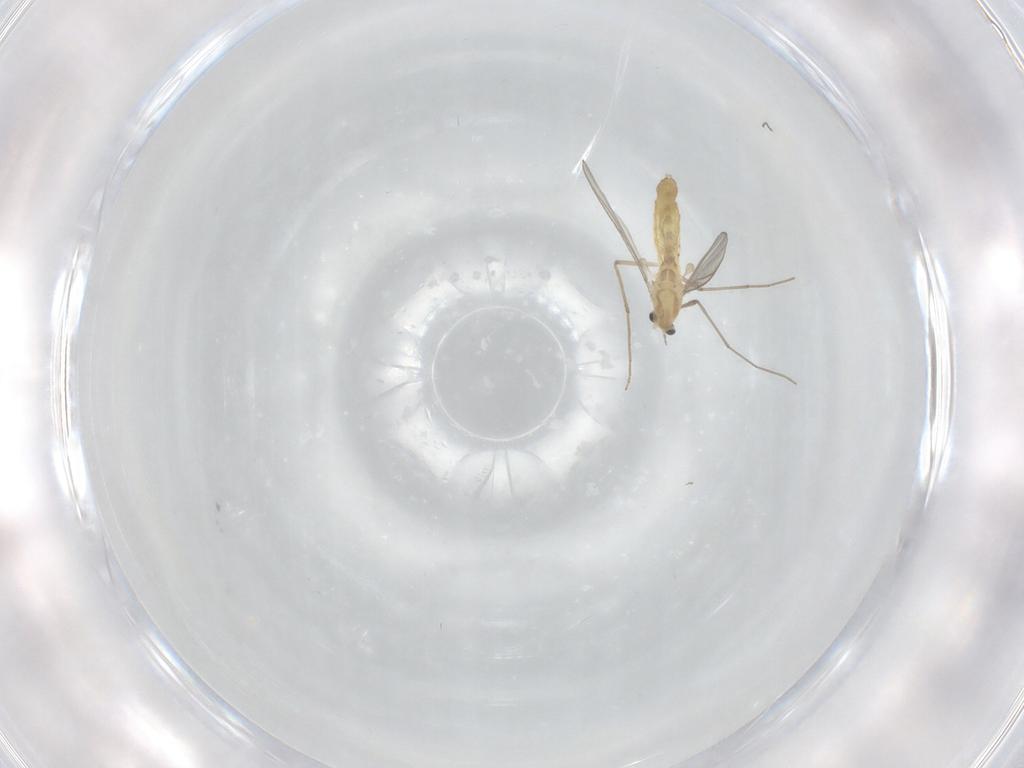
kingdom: Animalia
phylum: Arthropoda
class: Insecta
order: Diptera
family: Chironomidae
